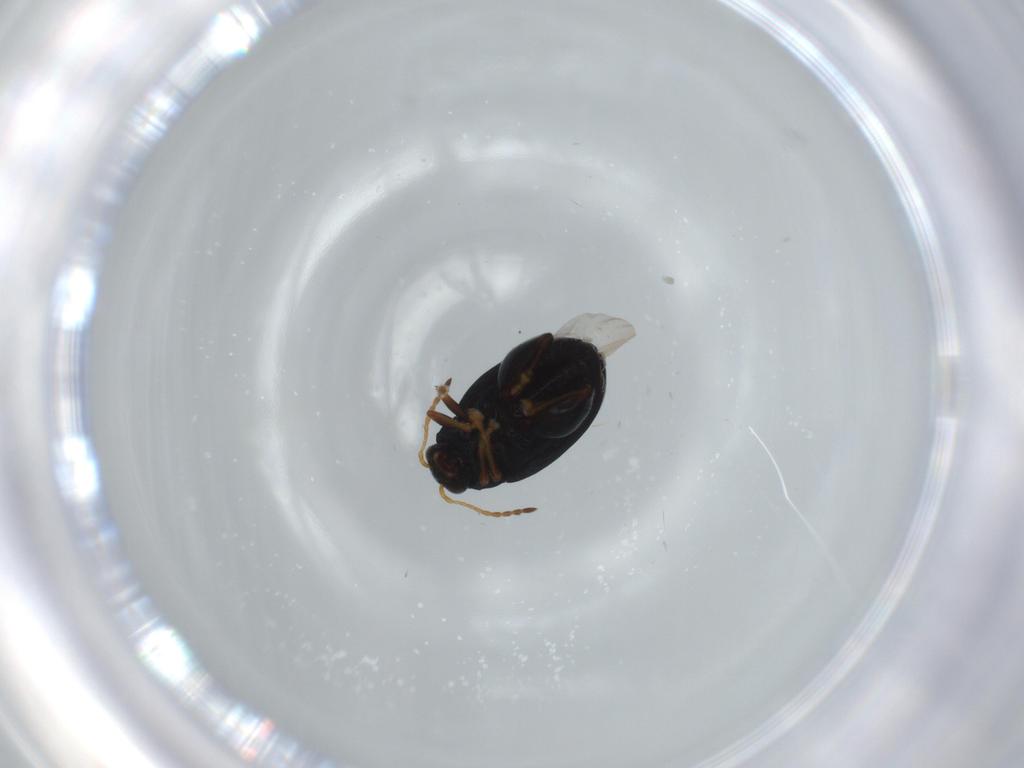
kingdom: Animalia
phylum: Arthropoda
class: Insecta
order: Coleoptera
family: Chrysomelidae
